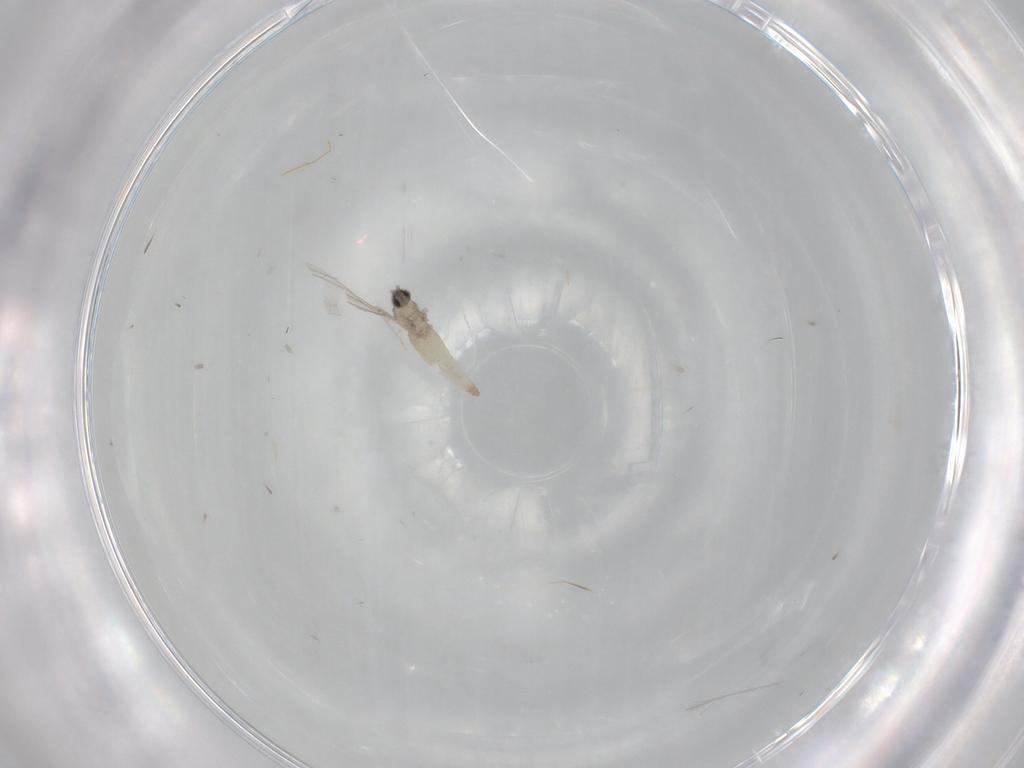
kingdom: Animalia
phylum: Arthropoda
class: Insecta
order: Diptera
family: Cecidomyiidae
